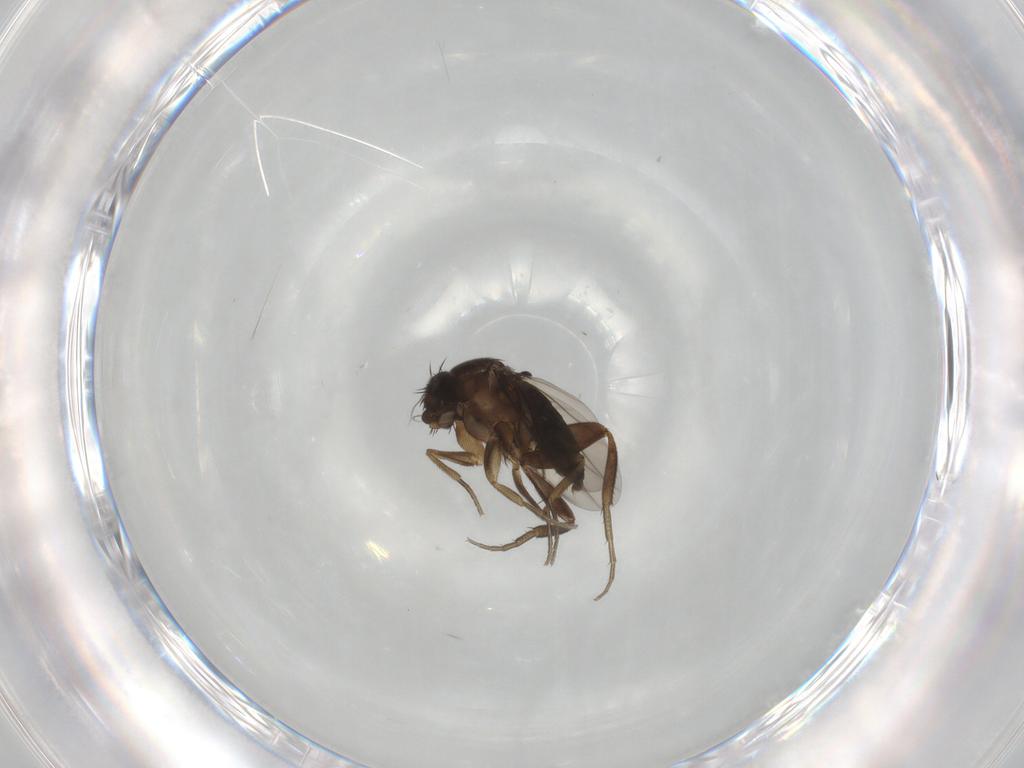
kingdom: Animalia
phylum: Arthropoda
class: Insecta
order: Diptera
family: Phoridae
